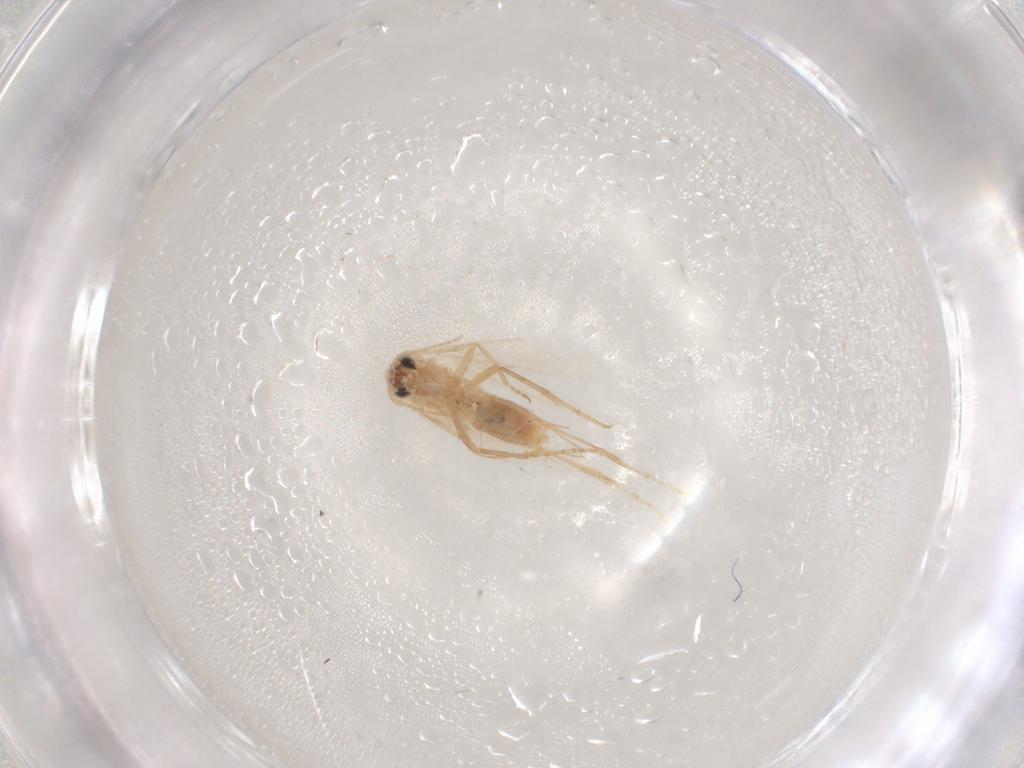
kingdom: Animalia
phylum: Arthropoda
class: Insecta
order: Lepidoptera
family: Bucculatricidae
